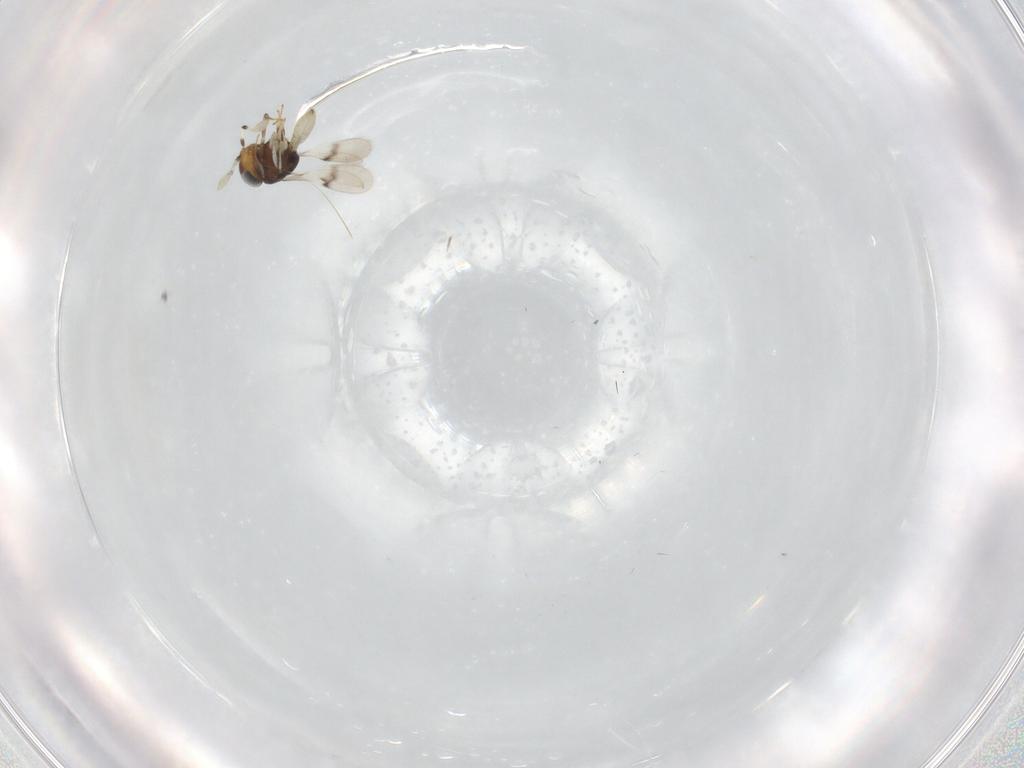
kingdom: Animalia
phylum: Arthropoda
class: Insecta
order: Hymenoptera
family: Scelionidae
